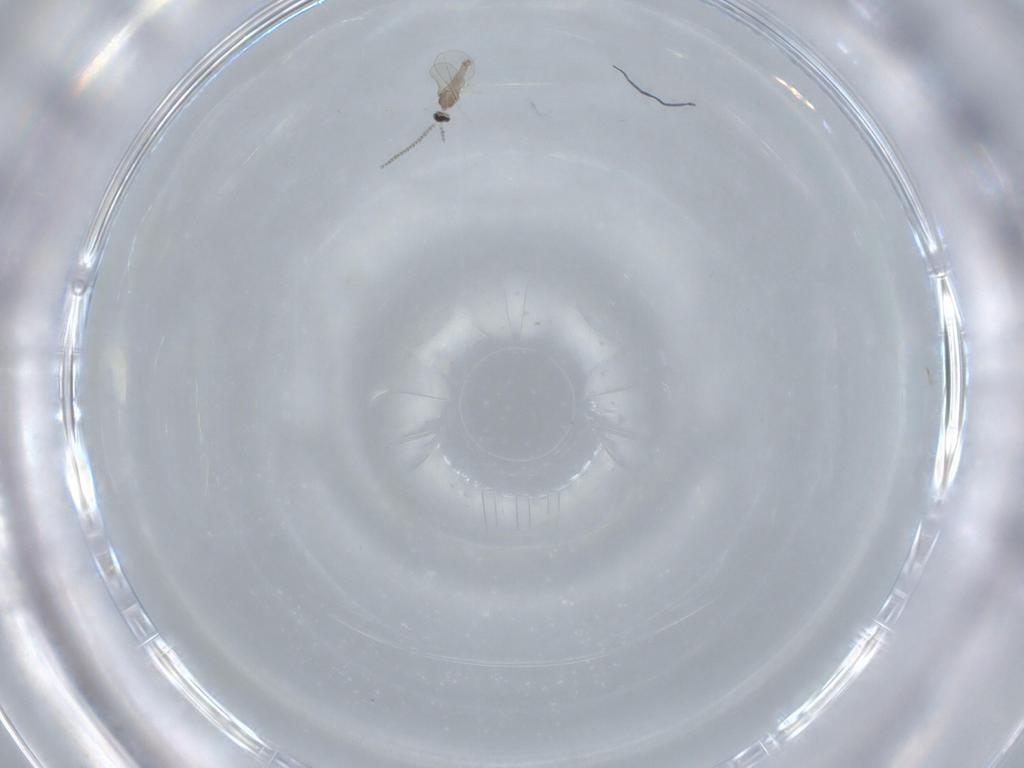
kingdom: Animalia
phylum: Arthropoda
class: Insecta
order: Diptera
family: Cecidomyiidae
